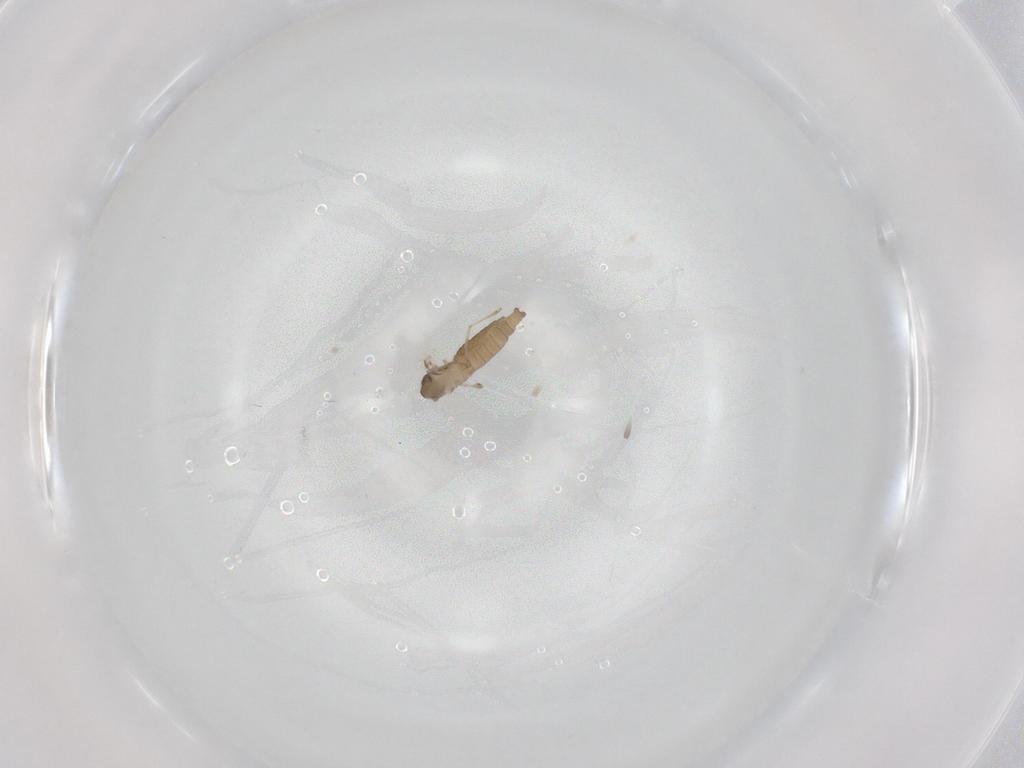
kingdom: Animalia
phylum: Arthropoda
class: Insecta
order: Diptera
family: Cecidomyiidae
